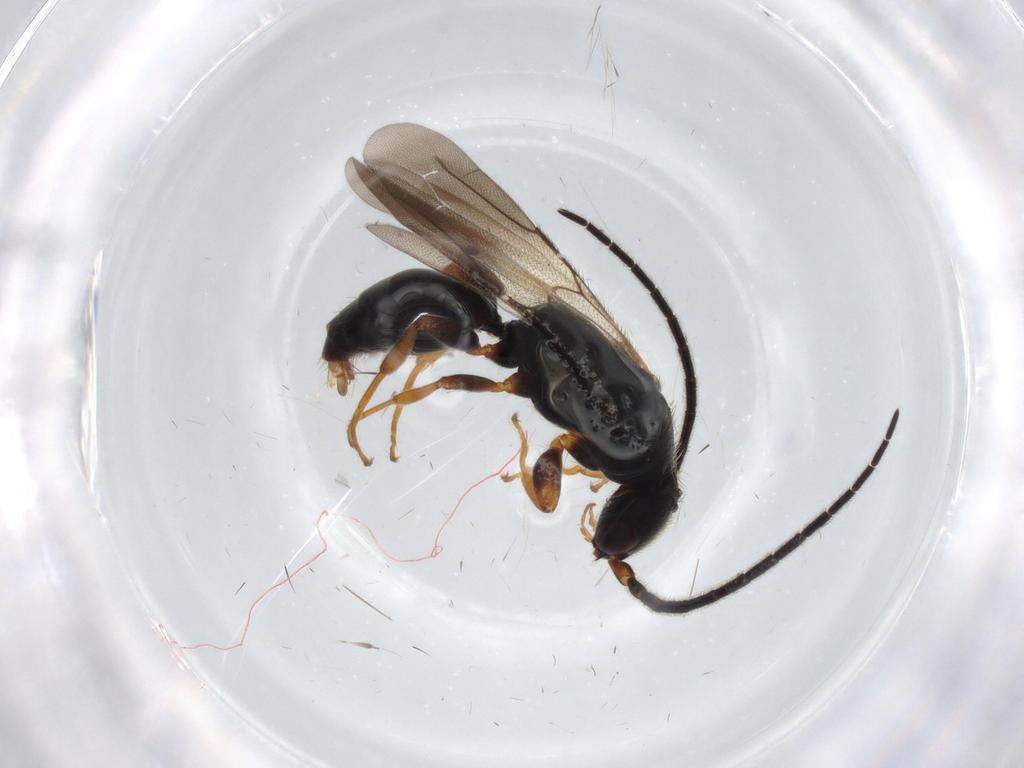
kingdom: Animalia
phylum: Arthropoda
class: Insecta
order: Hymenoptera
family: Bethylidae
